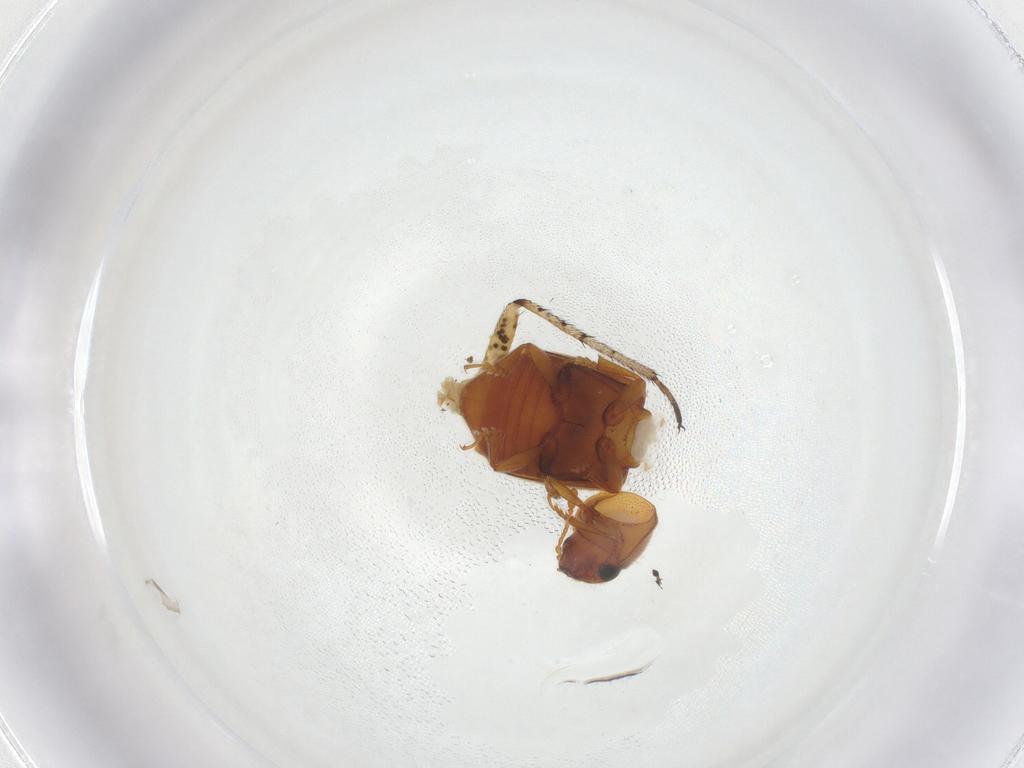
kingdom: Animalia
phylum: Arthropoda
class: Insecta
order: Coleoptera
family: Kateretidae
